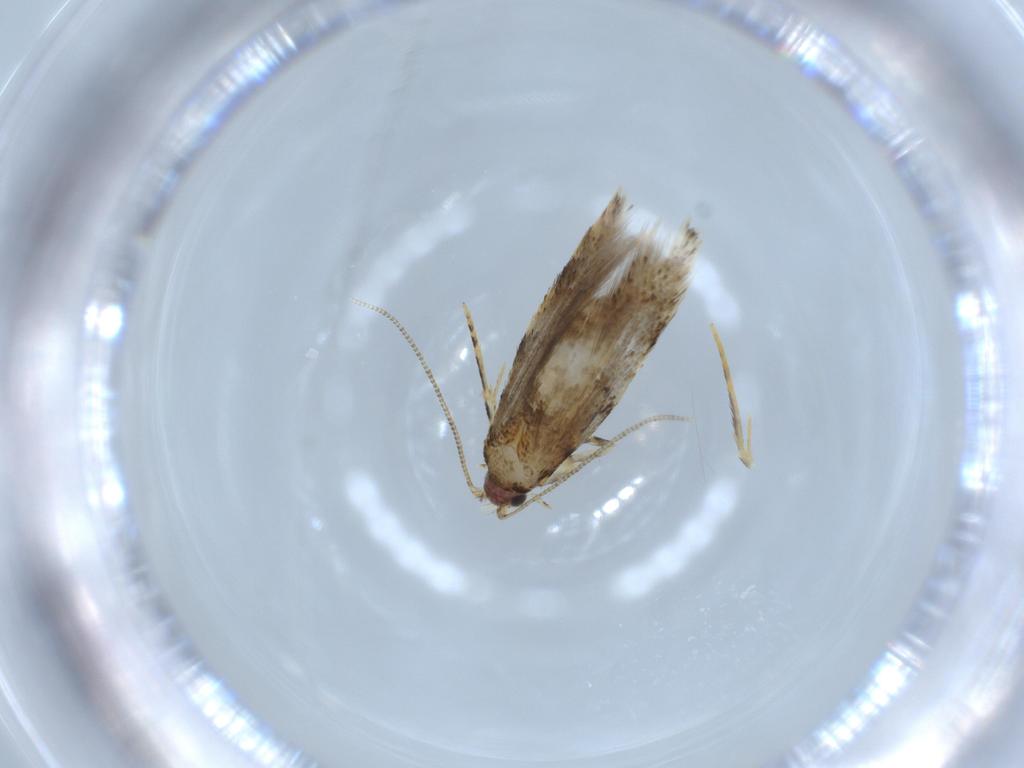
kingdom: Animalia
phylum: Arthropoda
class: Insecta
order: Lepidoptera
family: Tineidae
